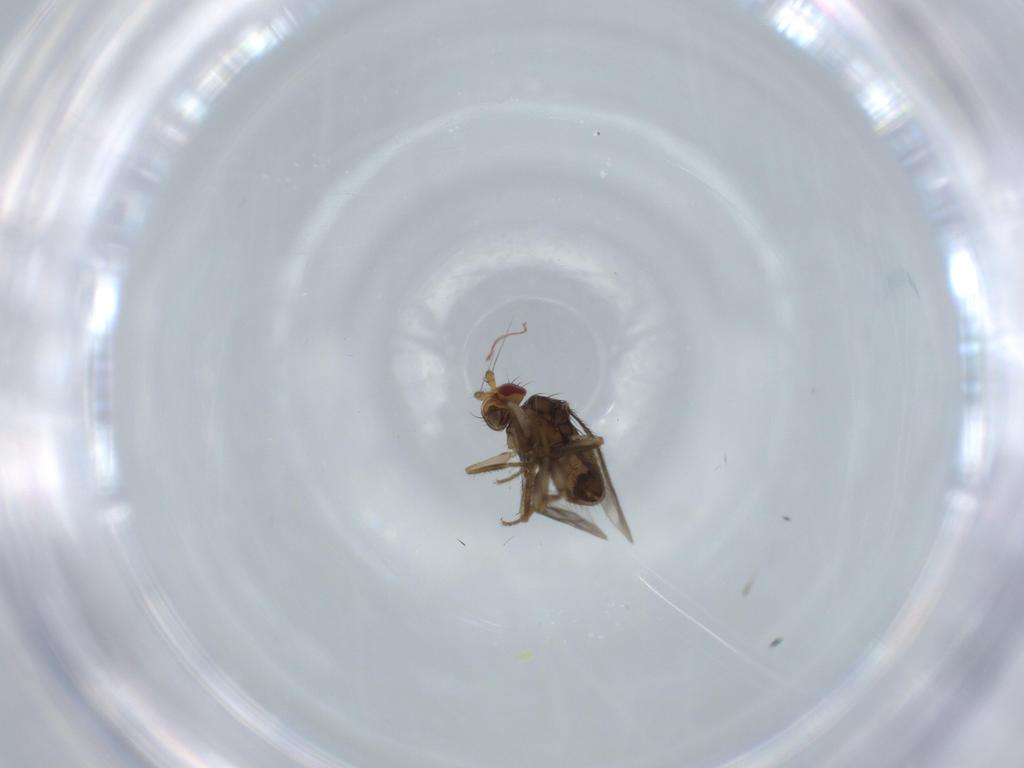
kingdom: Animalia
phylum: Arthropoda
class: Insecta
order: Diptera
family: Sphaeroceridae
